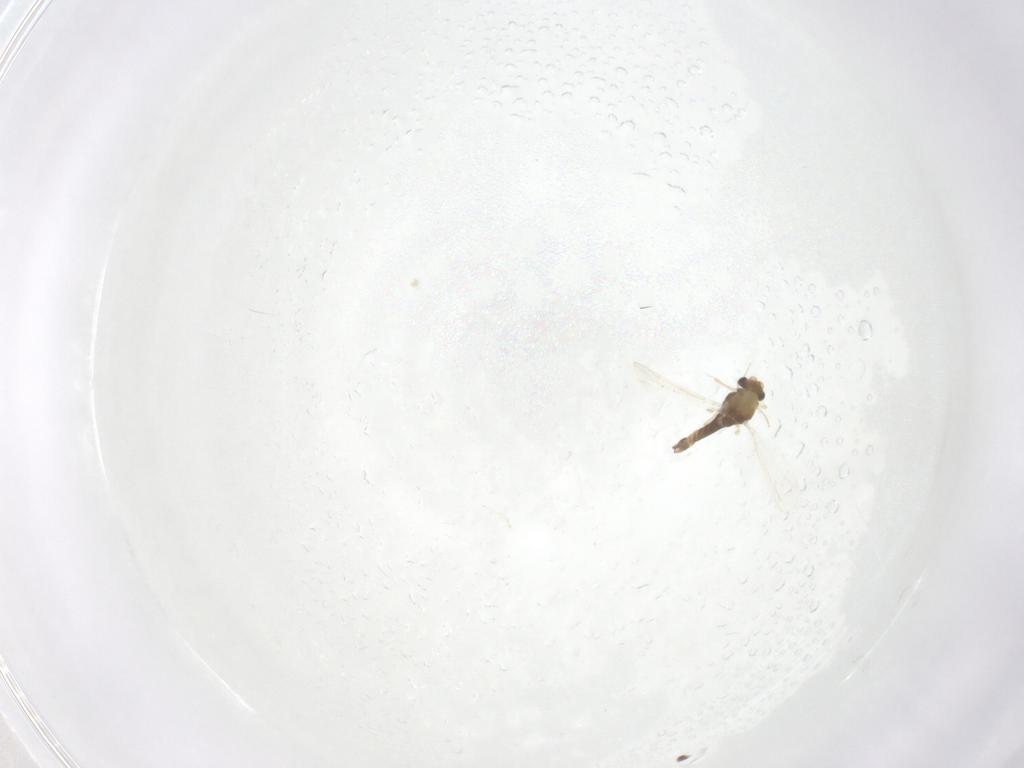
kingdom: Animalia
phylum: Arthropoda
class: Insecta
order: Diptera
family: Chironomidae
